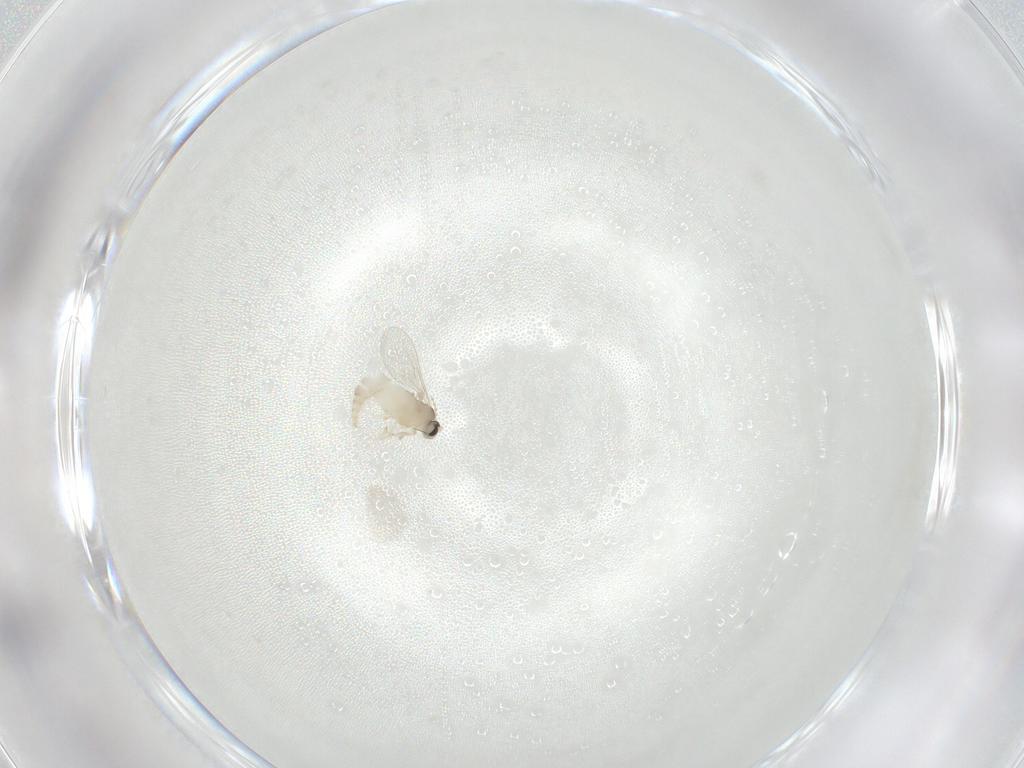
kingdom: Animalia
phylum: Arthropoda
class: Insecta
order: Diptera
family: Cecidomyiidae
